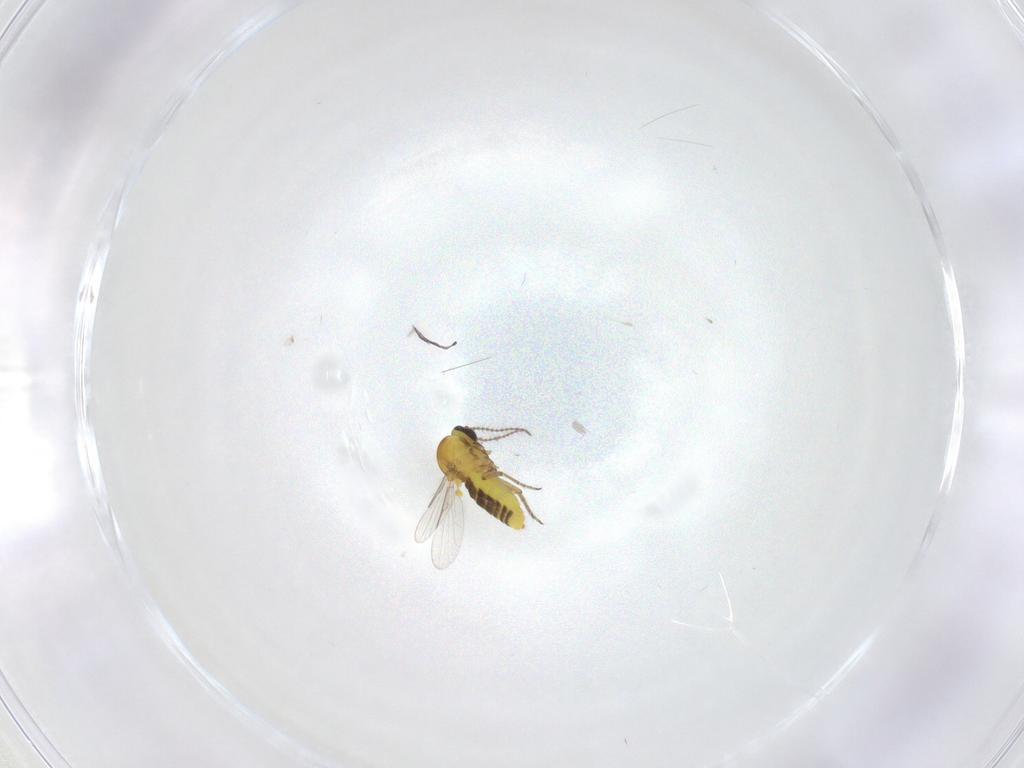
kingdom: Animalia
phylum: Arthropoda
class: Insecta
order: Diptera
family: Ceratopogonidae
